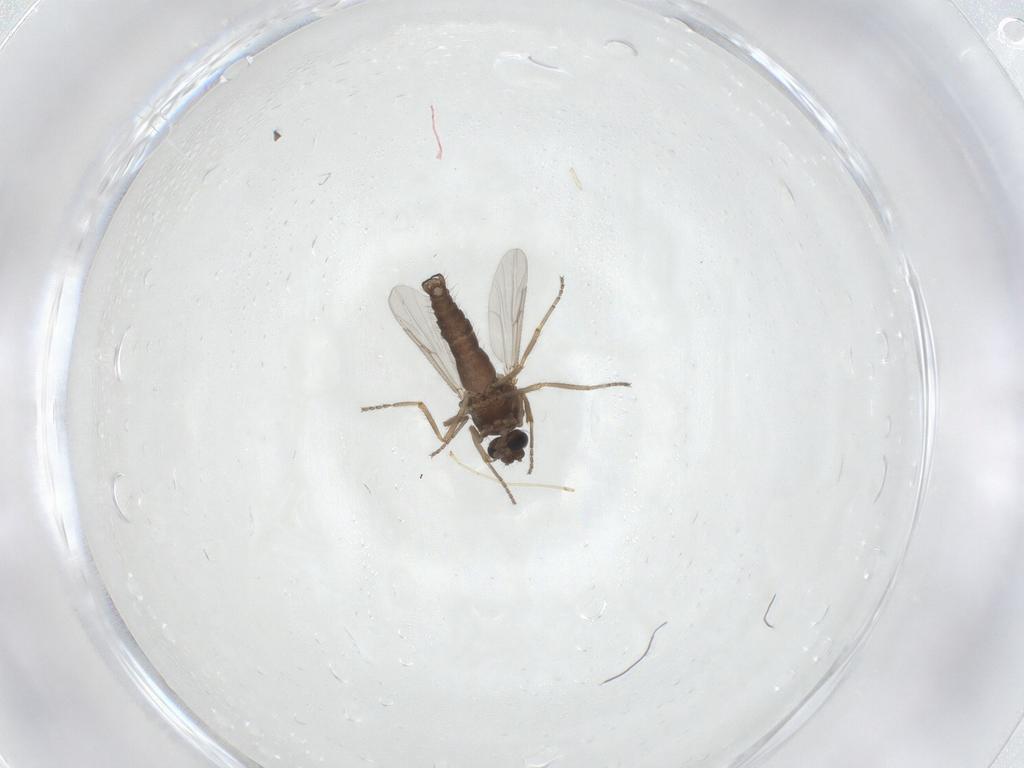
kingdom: Animalia
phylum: Arthropoda
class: Insecta
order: Diptera
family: Ceratopogonidae
